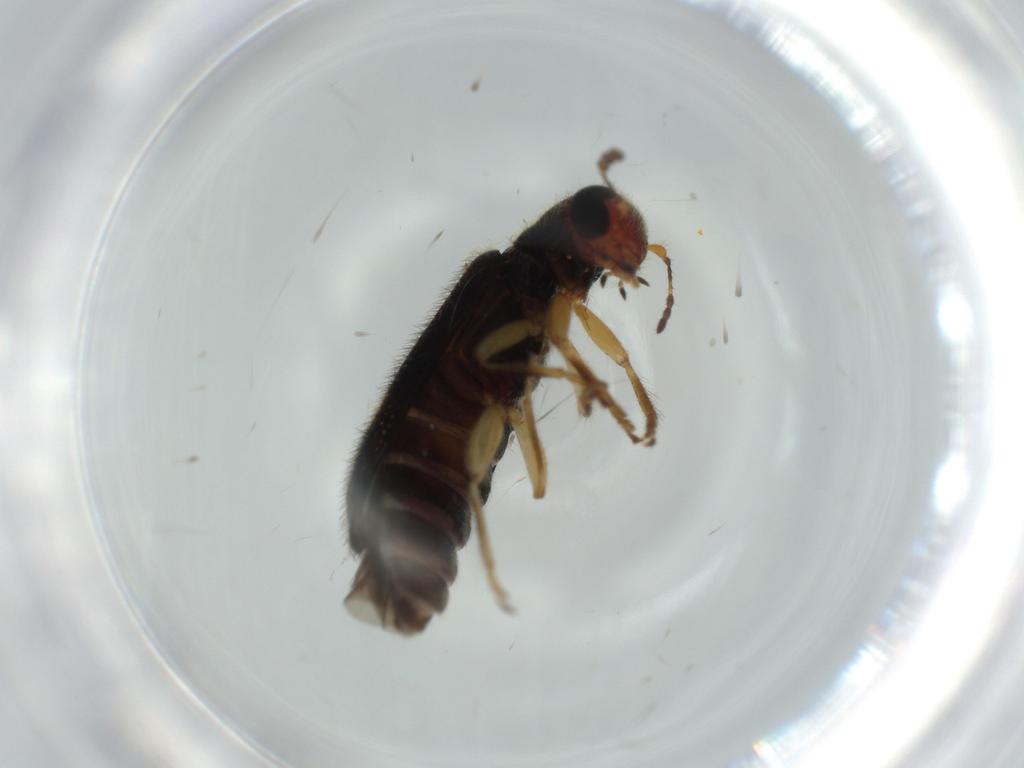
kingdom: Animalia
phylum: Arthropoda
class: Insecta
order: Coleoptera
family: Cleridae
